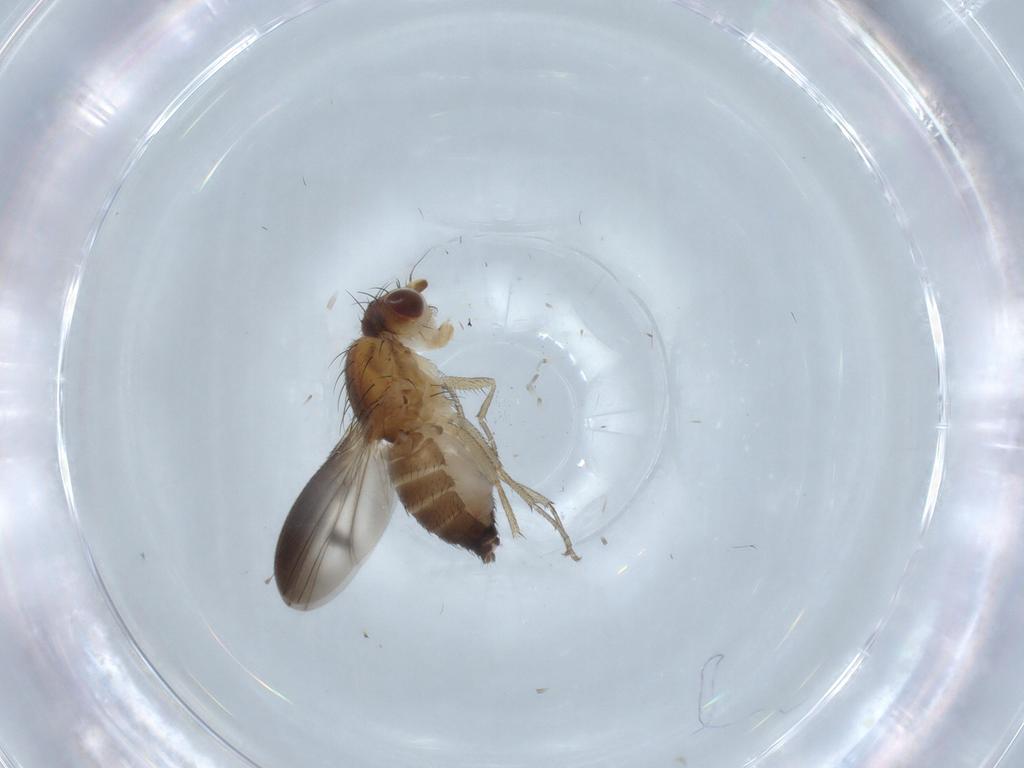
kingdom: Animalia
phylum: Arthropoda
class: Insecta
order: Diptera
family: Heleomyzidae
